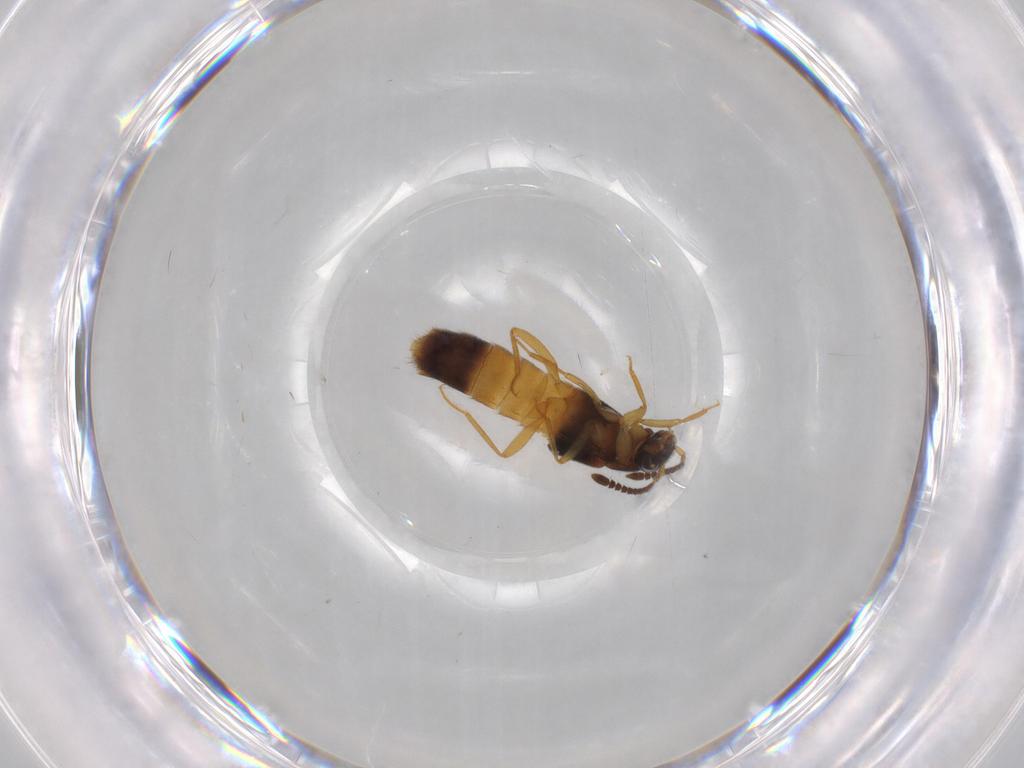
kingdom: Animalia
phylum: Arthropoda
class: Insecta
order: Coleoptera
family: Staphylinidae
